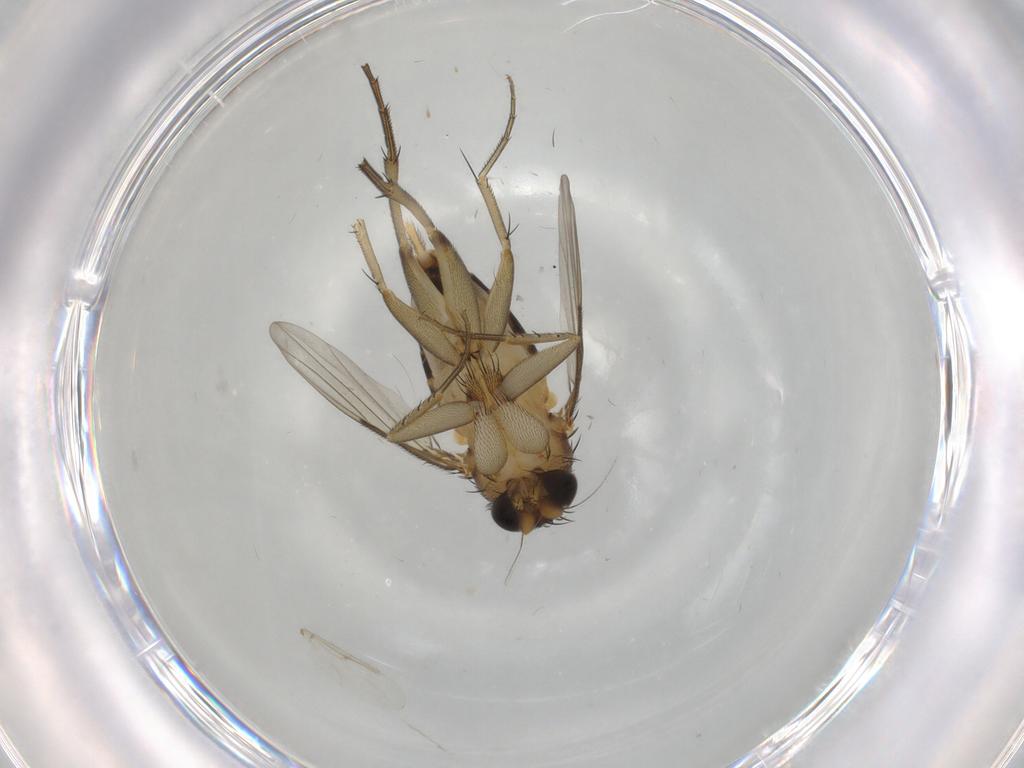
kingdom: Animalia
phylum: Arthropoda
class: Insecta
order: Diptera
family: Phoridae
